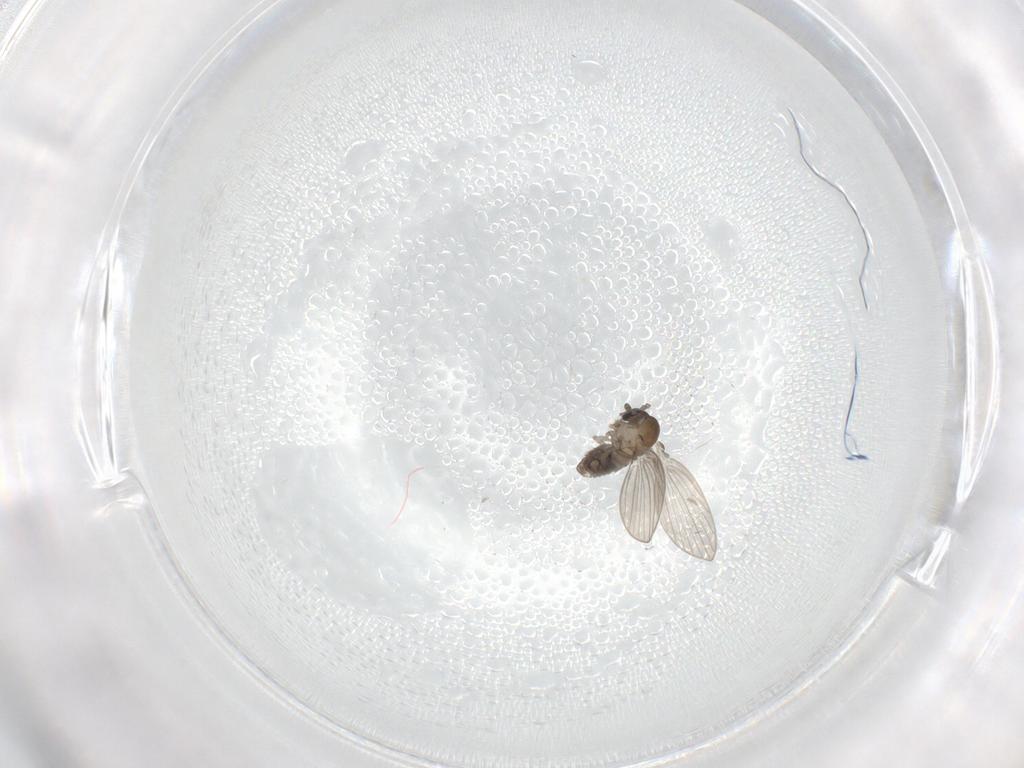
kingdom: Animalia
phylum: Arthropoda
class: Insecta
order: Diptera
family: Psychodidae
